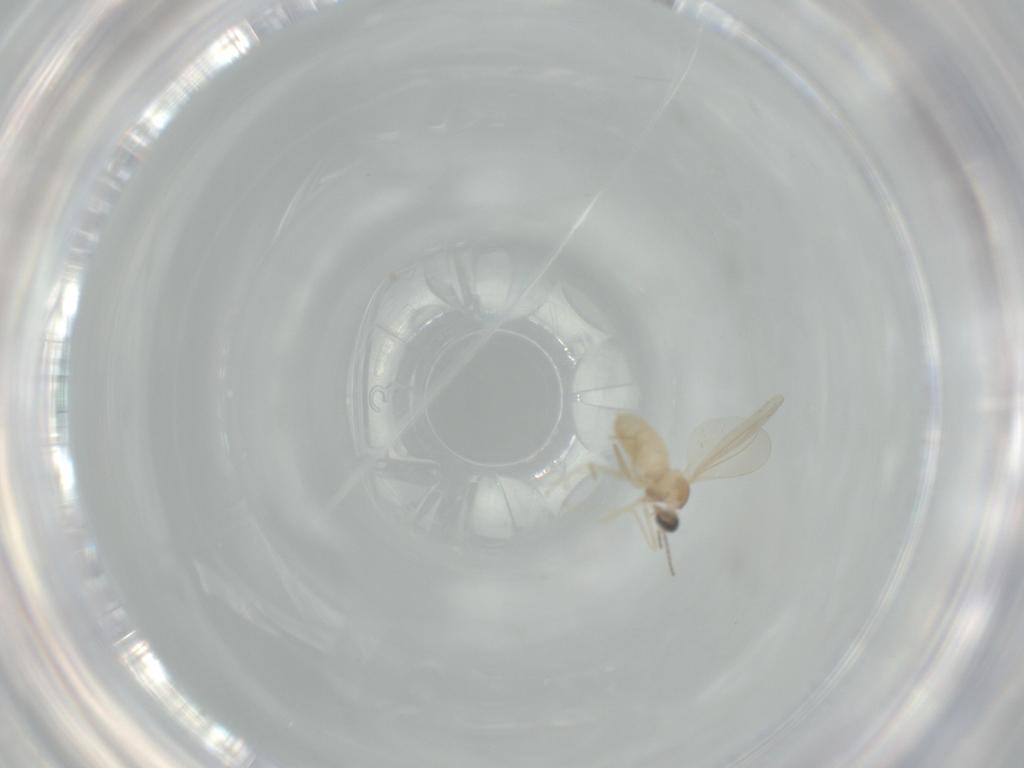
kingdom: Animalia
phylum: Arthropoda
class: Insecta
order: Diptera
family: Cecidomyiidae
